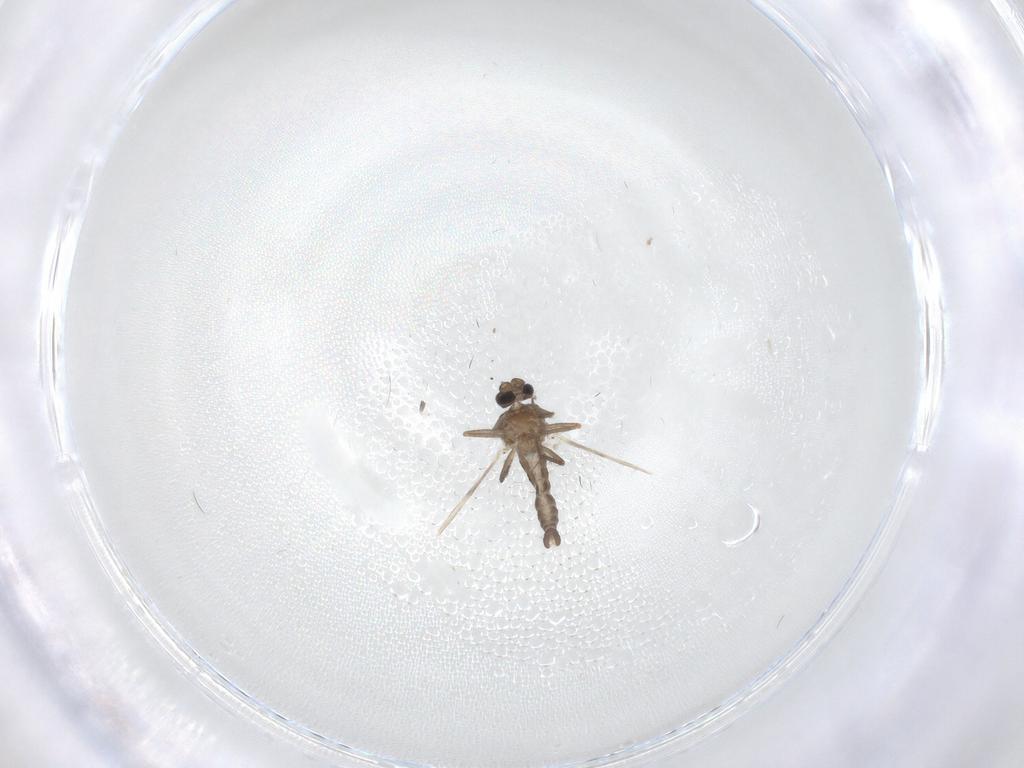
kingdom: Animalia
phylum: Arthropoda
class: Insecta
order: Diptera
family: Ceratopogonidae
